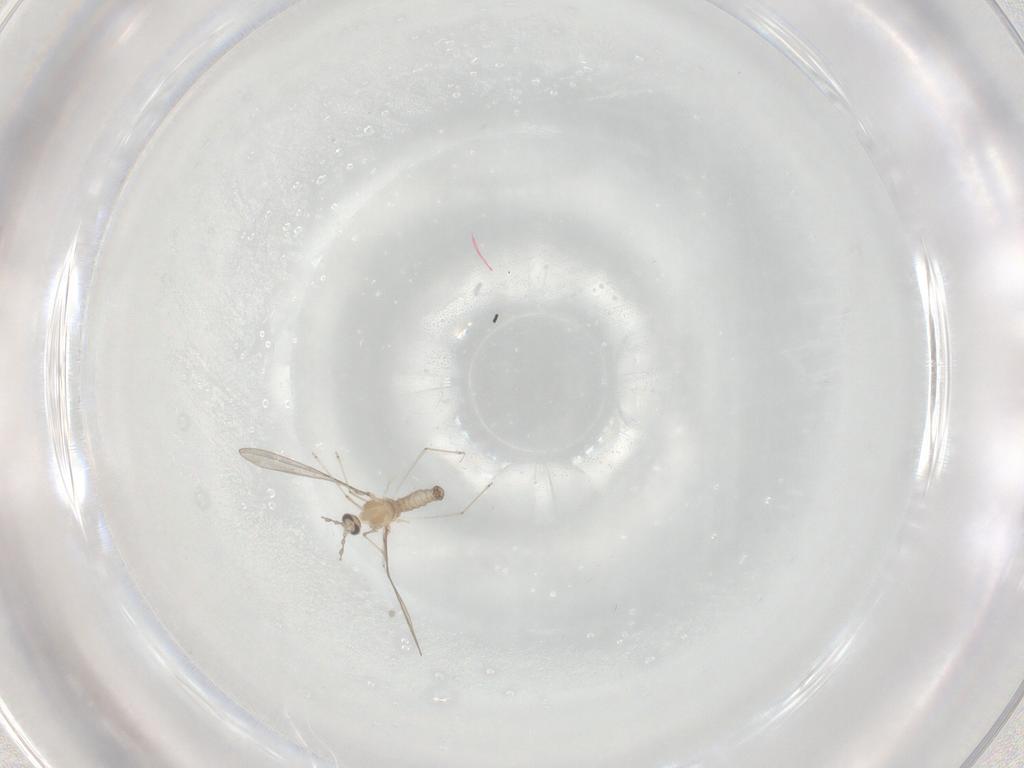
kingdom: Animalia
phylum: Arthropoda
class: Insecta
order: Diptera
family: Cecidomyiidae
